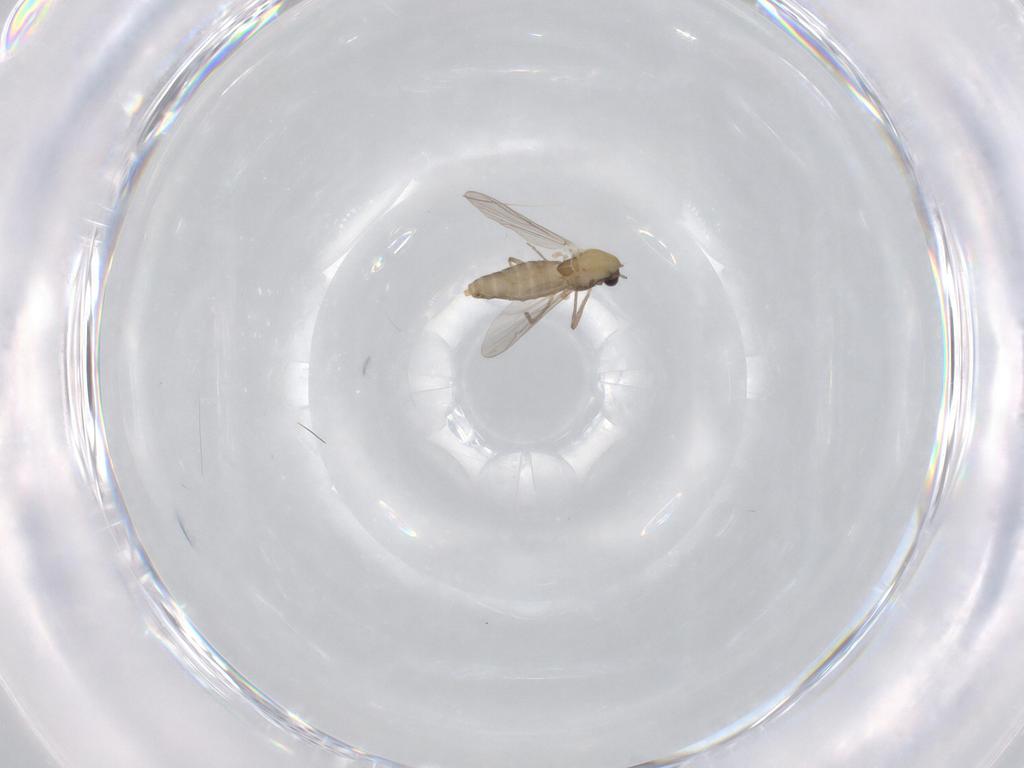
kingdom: Animalia
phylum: Arthropoda
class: Insecta
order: Diptera
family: Chironomidae
